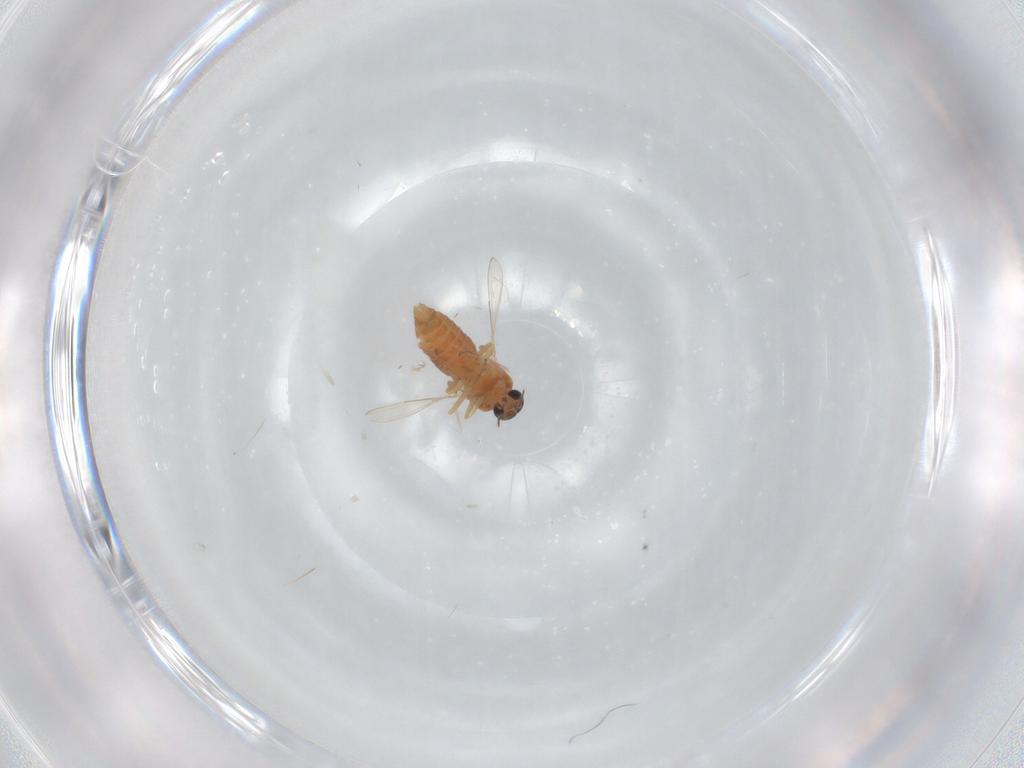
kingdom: Animalia
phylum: Arthropoda
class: Insecta
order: Diptera
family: Ceratopogonidae
